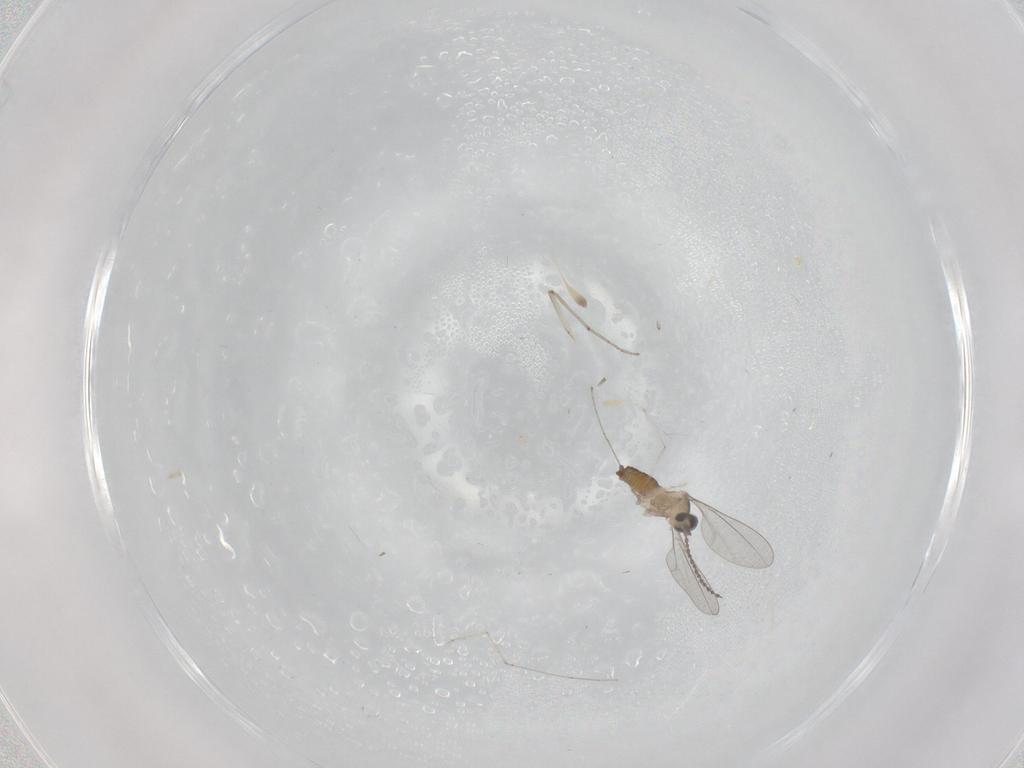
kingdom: Animalia
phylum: Arthropoda
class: Insecta
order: Diptera
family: Cecidomyiidae
